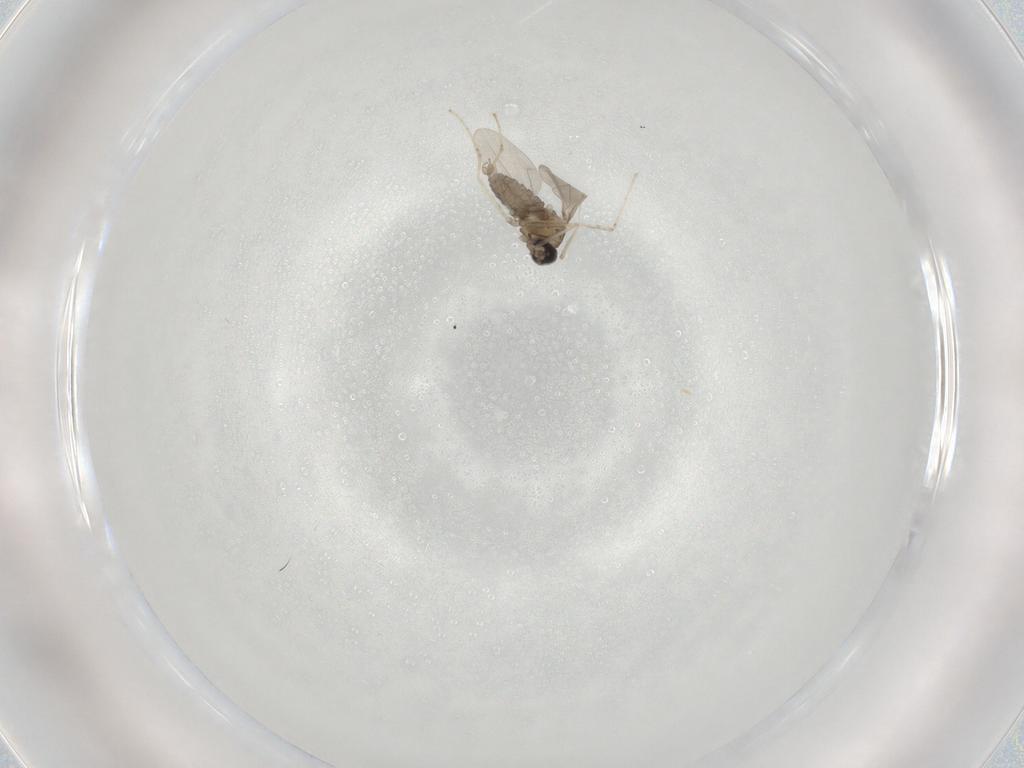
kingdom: Animalia
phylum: Arthropoda
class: Insecta
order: Diptera
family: Cecidomyiidae
